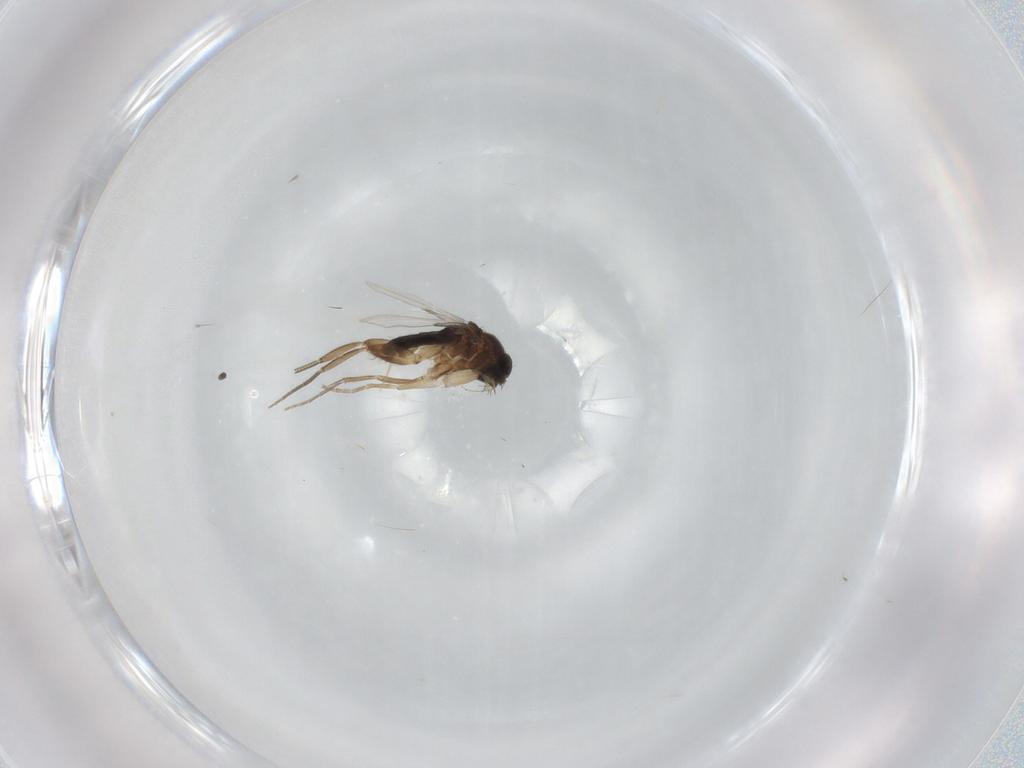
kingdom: Animalia
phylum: Arthropoda
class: Insecta
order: Diptera
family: Phoridae
